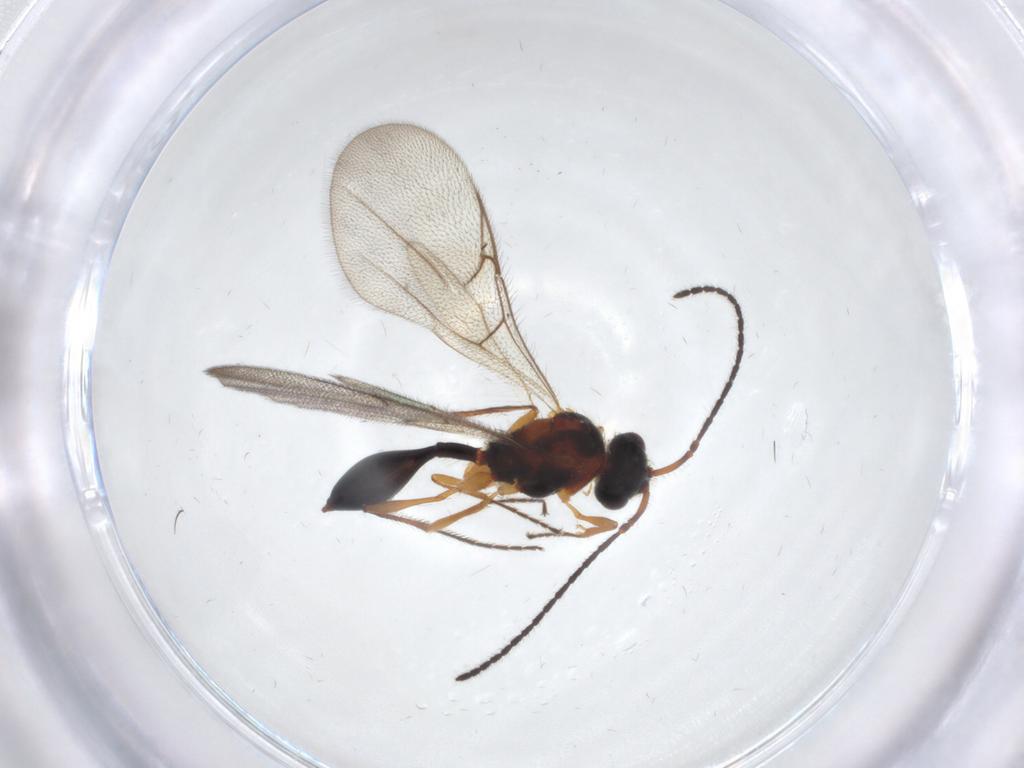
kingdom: Animalia
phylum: Arthropoda
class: Insecta
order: Hymenoptera
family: Diapriidae
